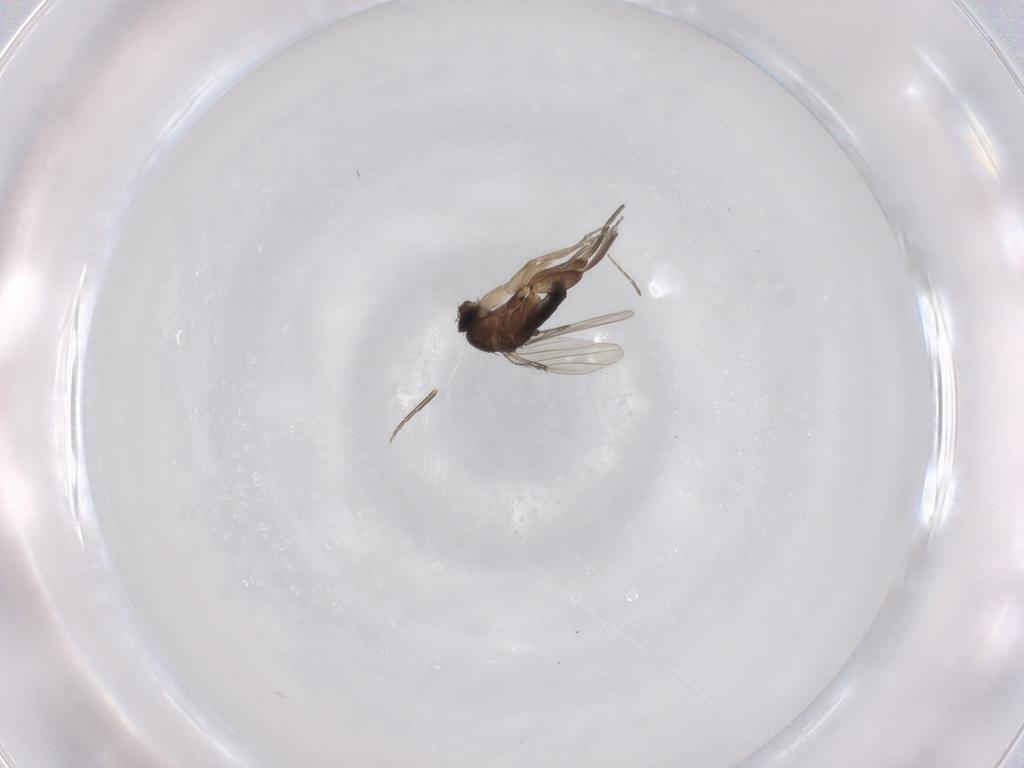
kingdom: Animalia
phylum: Arthropoda
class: Insecta
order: Diptera
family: Phoridae
